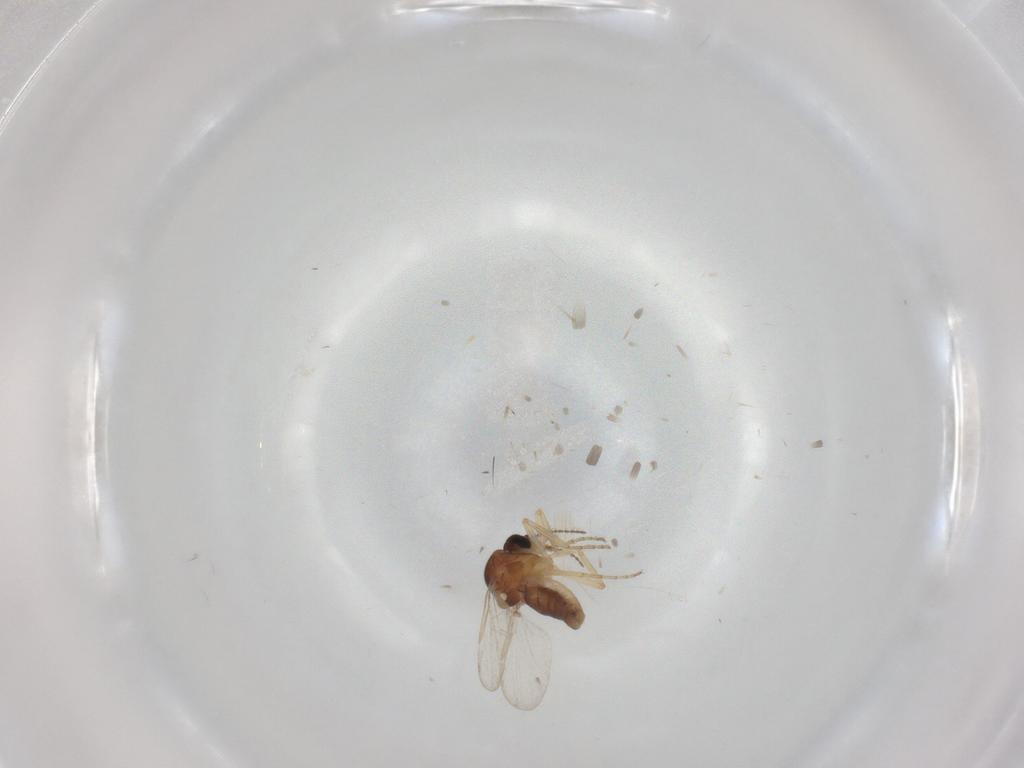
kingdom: Animalia
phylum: Arthropoda
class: Insecta
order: Diptera
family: Ceratopogonidae
